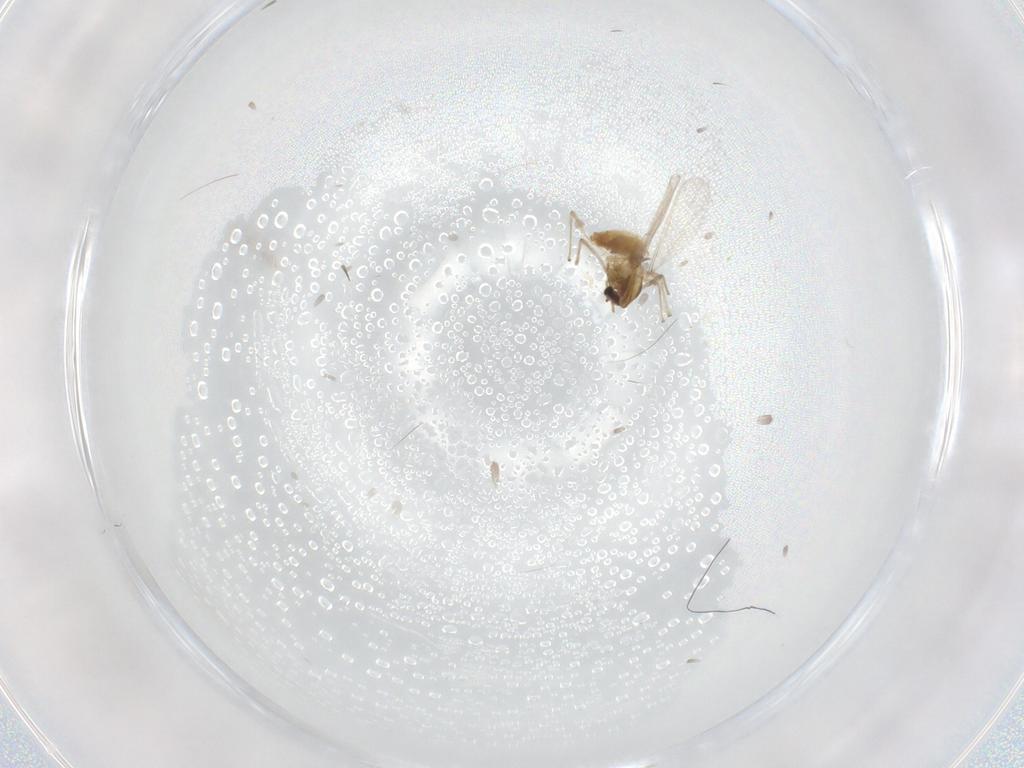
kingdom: Animalia
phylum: Arthropoda
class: Insecta
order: Diptera
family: Chironomidae
